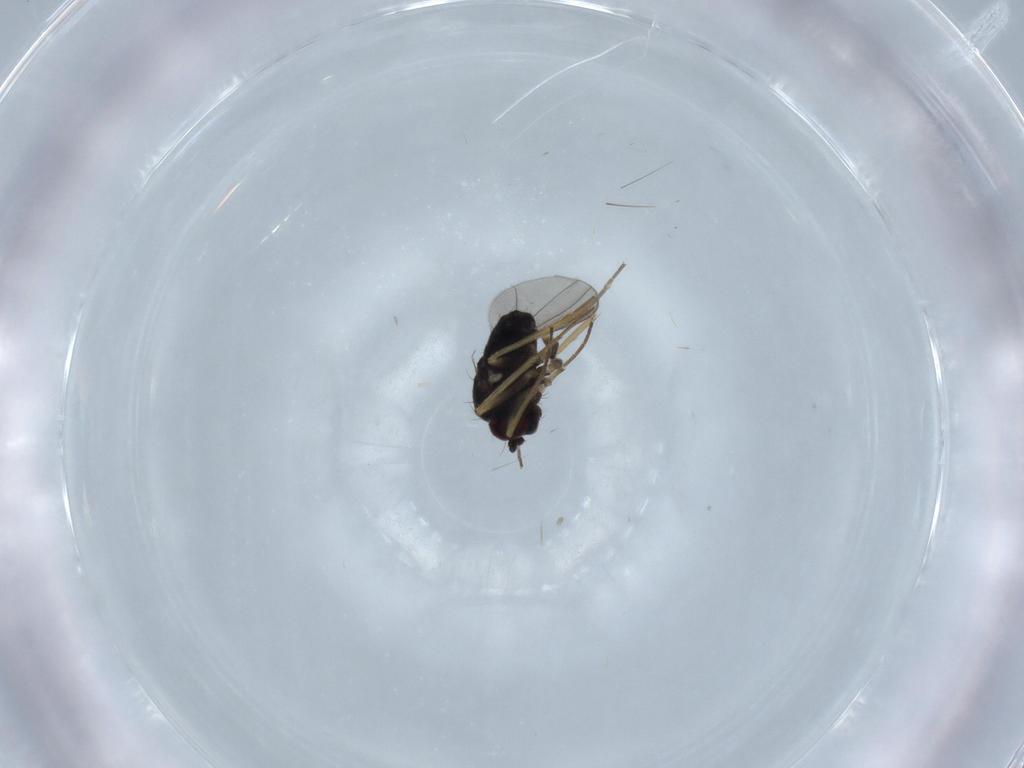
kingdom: Animalia
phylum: Arthropoda
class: Insecta
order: Diptera
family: Dolichopodidae
